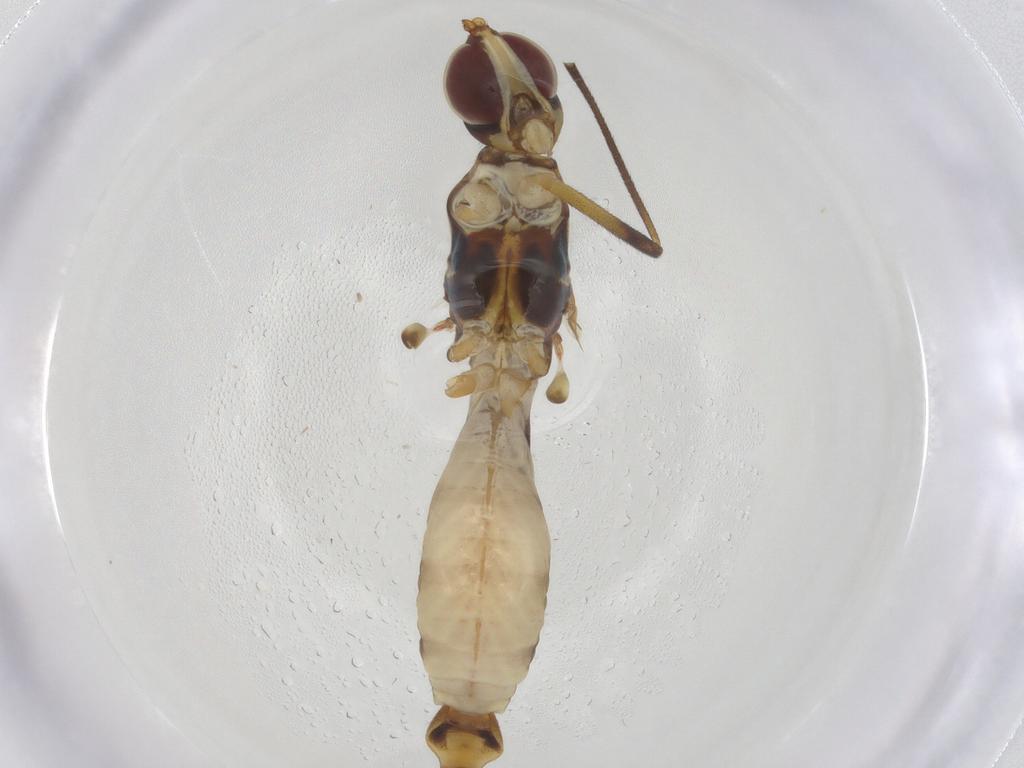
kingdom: Animalia
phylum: Arthropoda
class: Insecta
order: Diptera
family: Micropezidae
